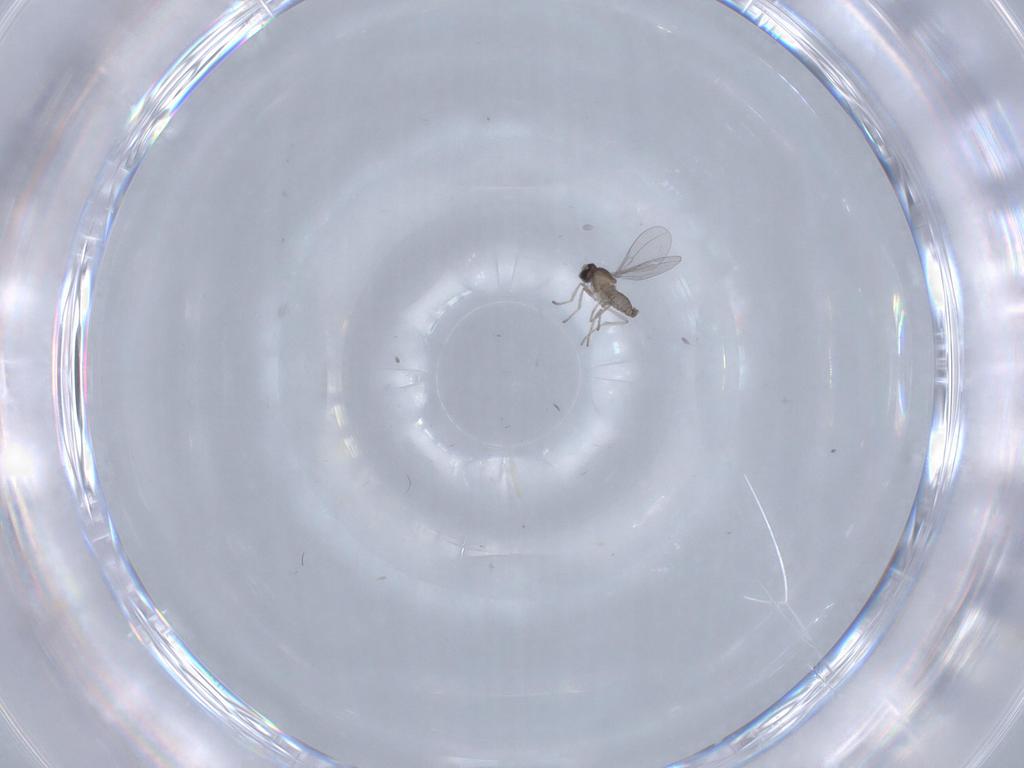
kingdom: Animalia
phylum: Arthropoda
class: Insecta
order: Diptera
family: Cecidomyiidae
